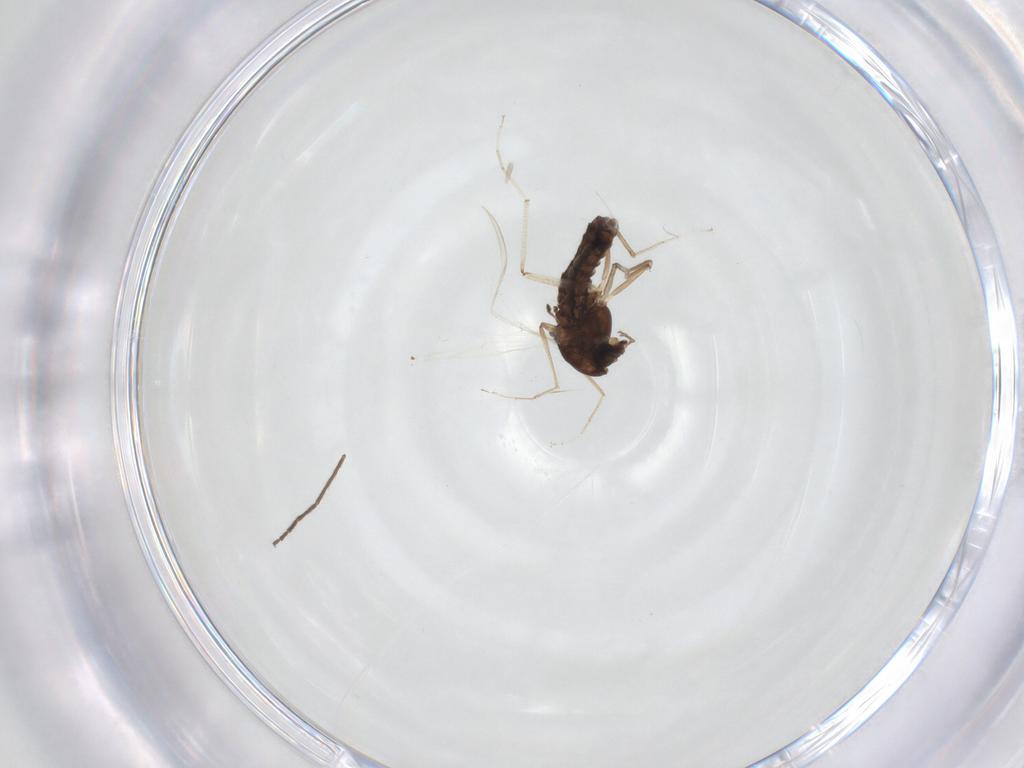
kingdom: Animalia
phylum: Arthropoda
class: Insecta
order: Diptera
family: Chironomidae
